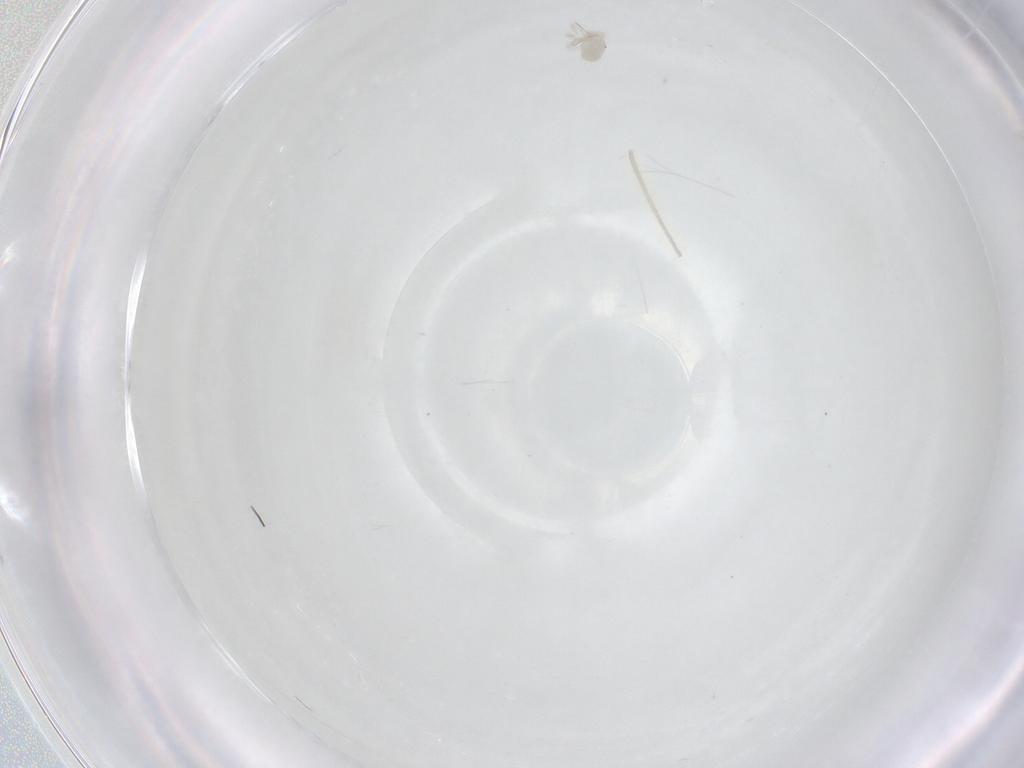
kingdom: Animalia
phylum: Arthropoda
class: Arachnida
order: Trombidiformes
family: Anystidae
